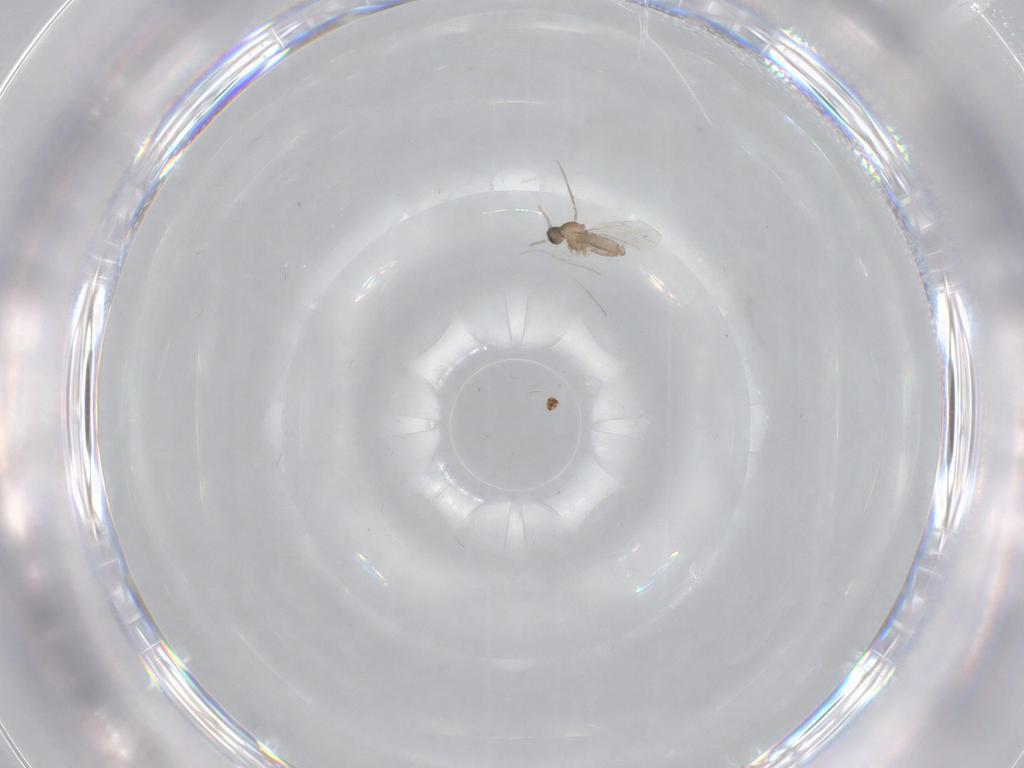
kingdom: Animalia
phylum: Arthropoda
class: Insecta
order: Diptera
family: Cecidomyiidae
